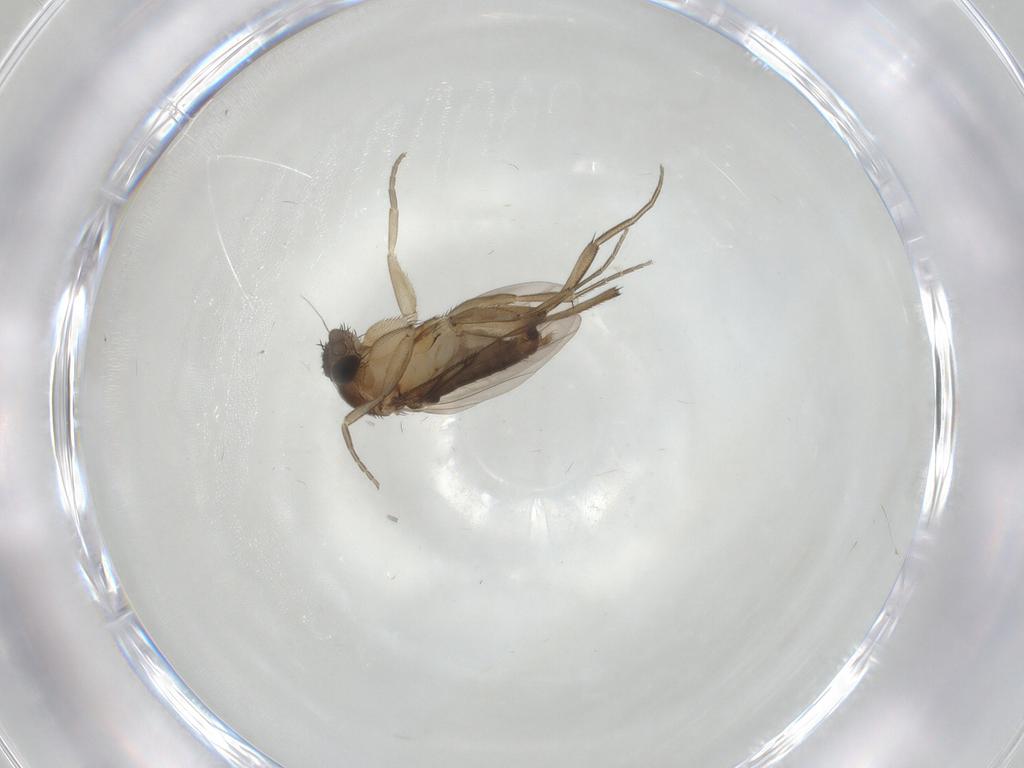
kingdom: Animalia
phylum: Arthropoda
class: Insecta
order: Diptera
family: Phoridae
